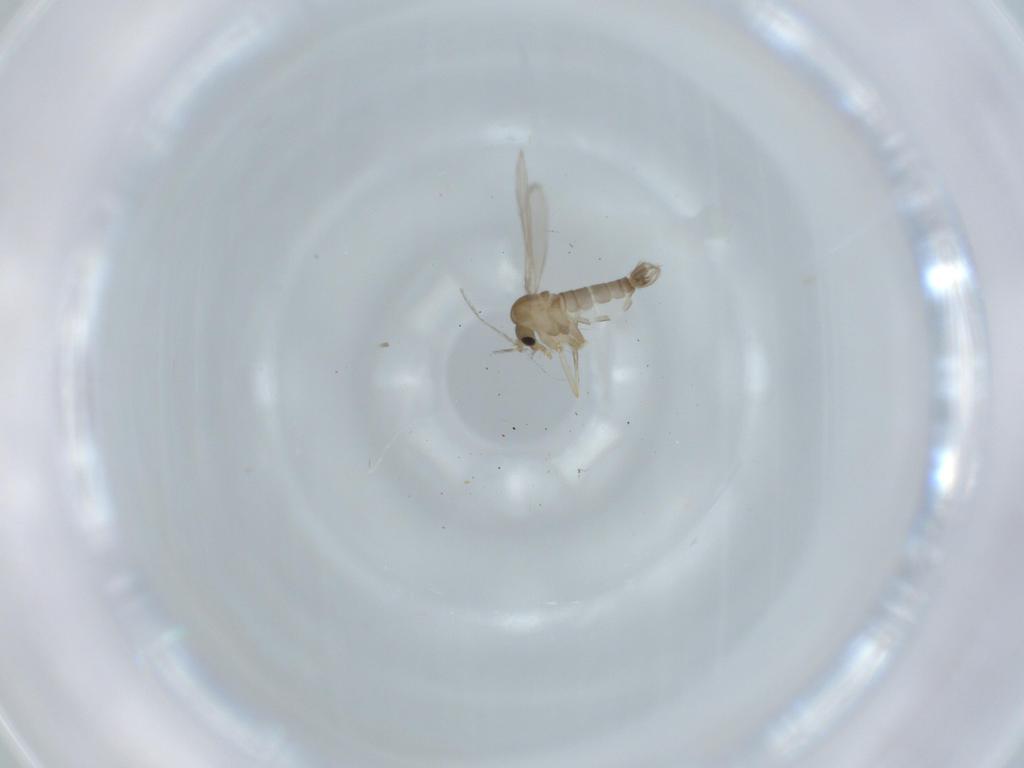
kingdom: Animalia
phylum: Arthropoda
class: Insecta
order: Diptera
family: Psychodidae
